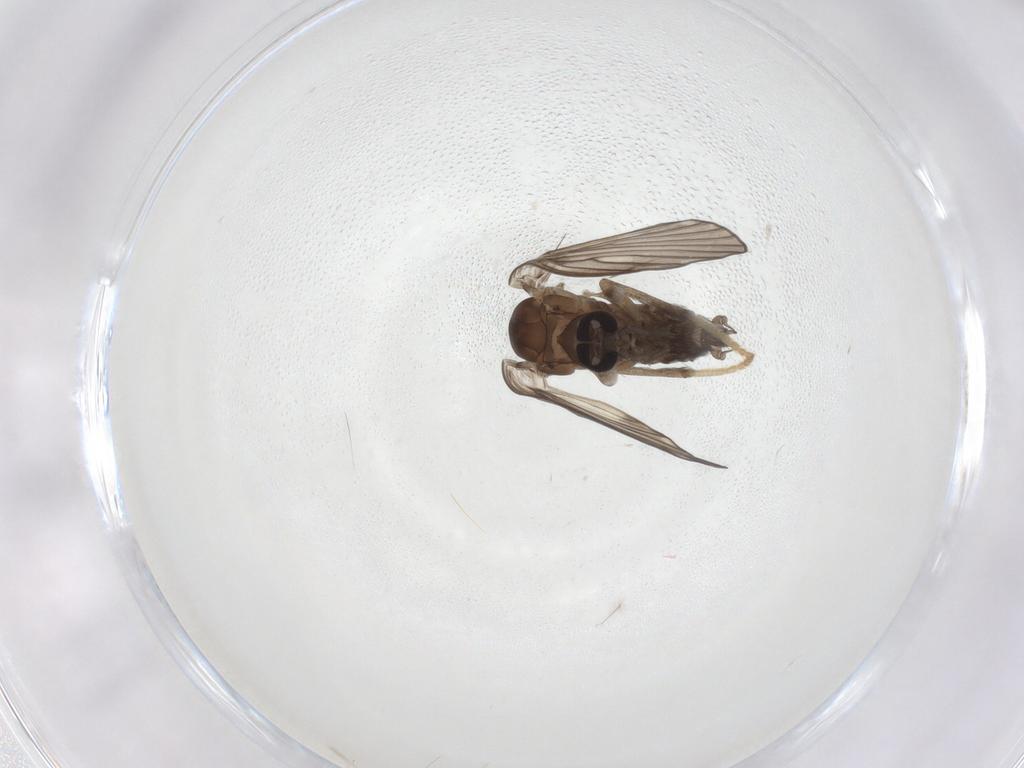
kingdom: Animalia
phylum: Arthropoda
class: Insecta
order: Diptera
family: Psychodidae
